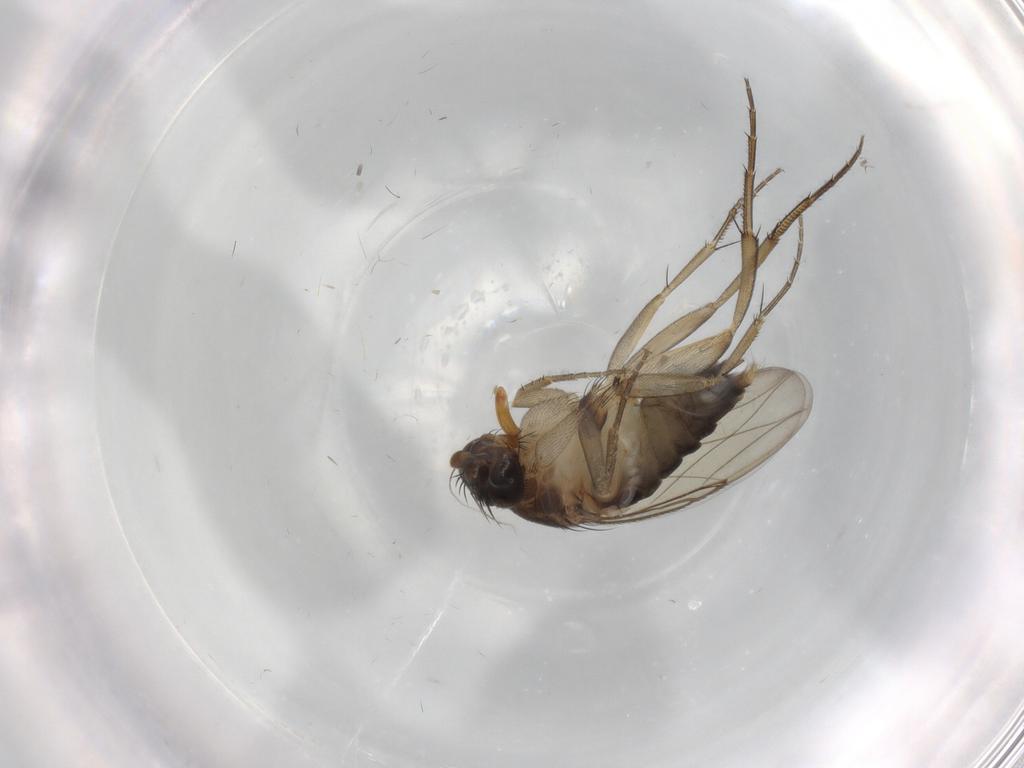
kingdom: Animalia
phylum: Arthropoda
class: Insecta
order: Diptera
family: Phoridae
